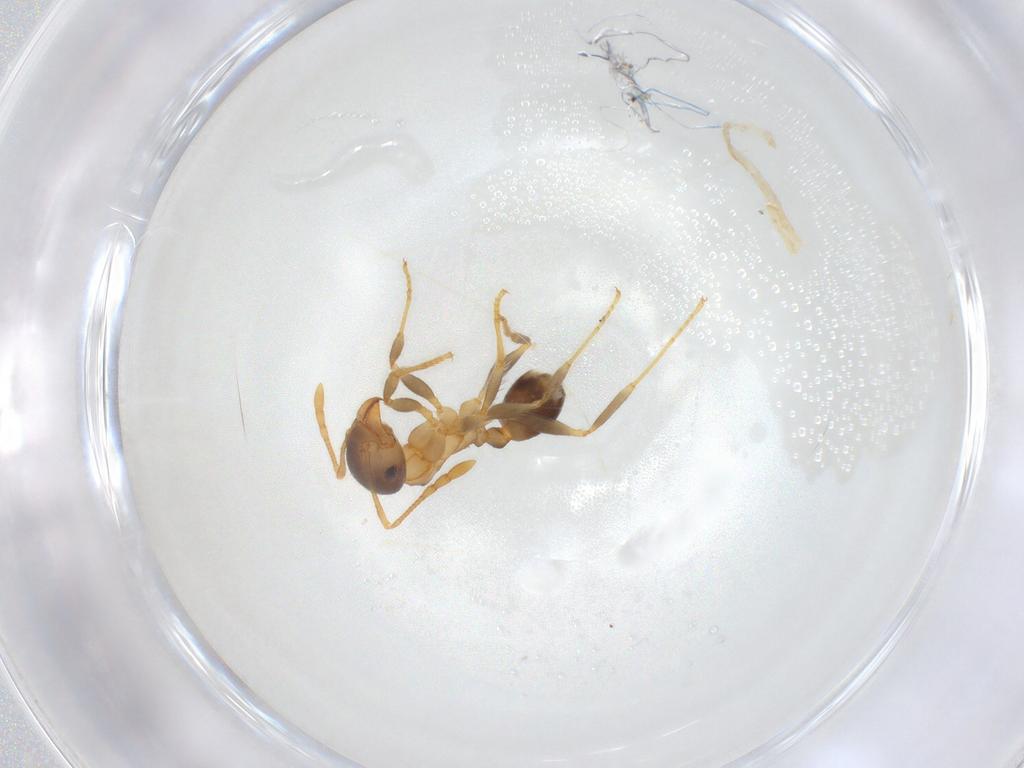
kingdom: Animalia
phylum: Arthropoda
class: Insecta
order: Hymenoptera
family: Formicidae
